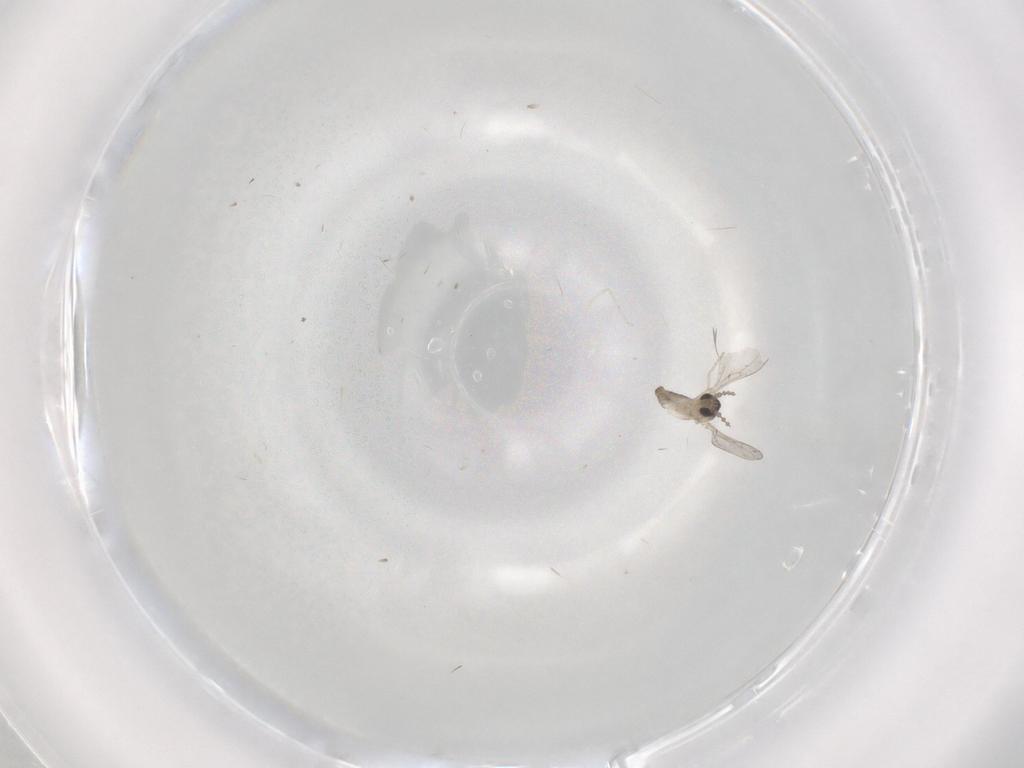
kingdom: Animalia
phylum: Arthropoda
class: Insecta
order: Diptera
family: Cecidomyiidae
